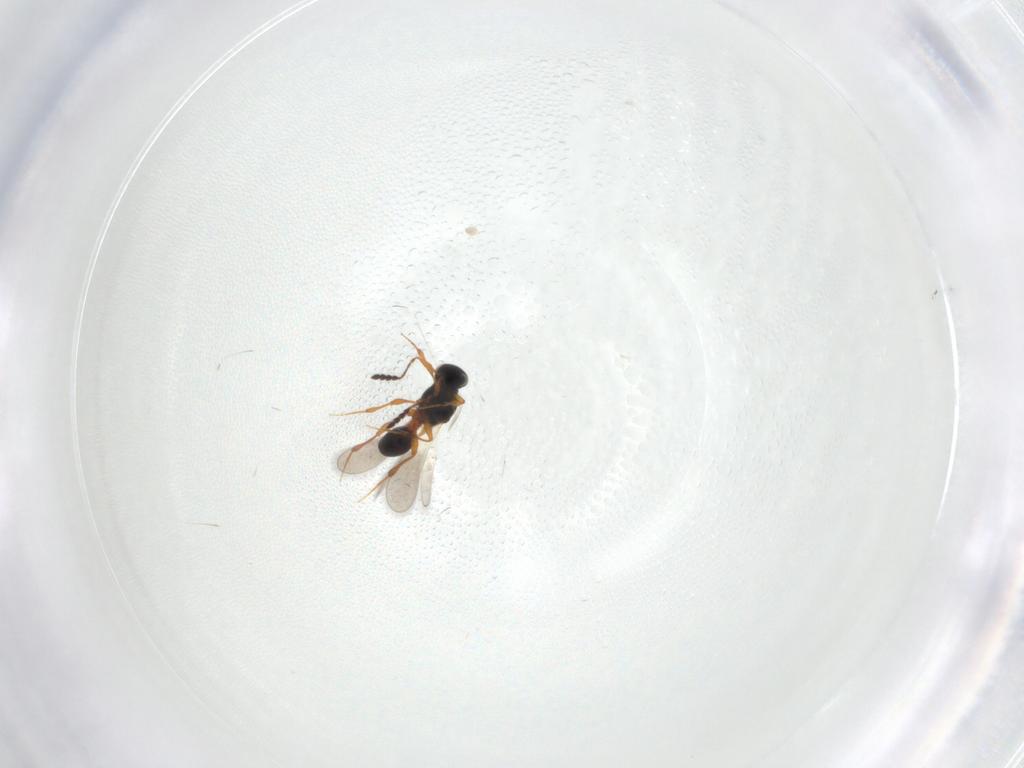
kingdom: Animalia
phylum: Arthropoda
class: Insecta
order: Hymenoptera
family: Platygastridae
